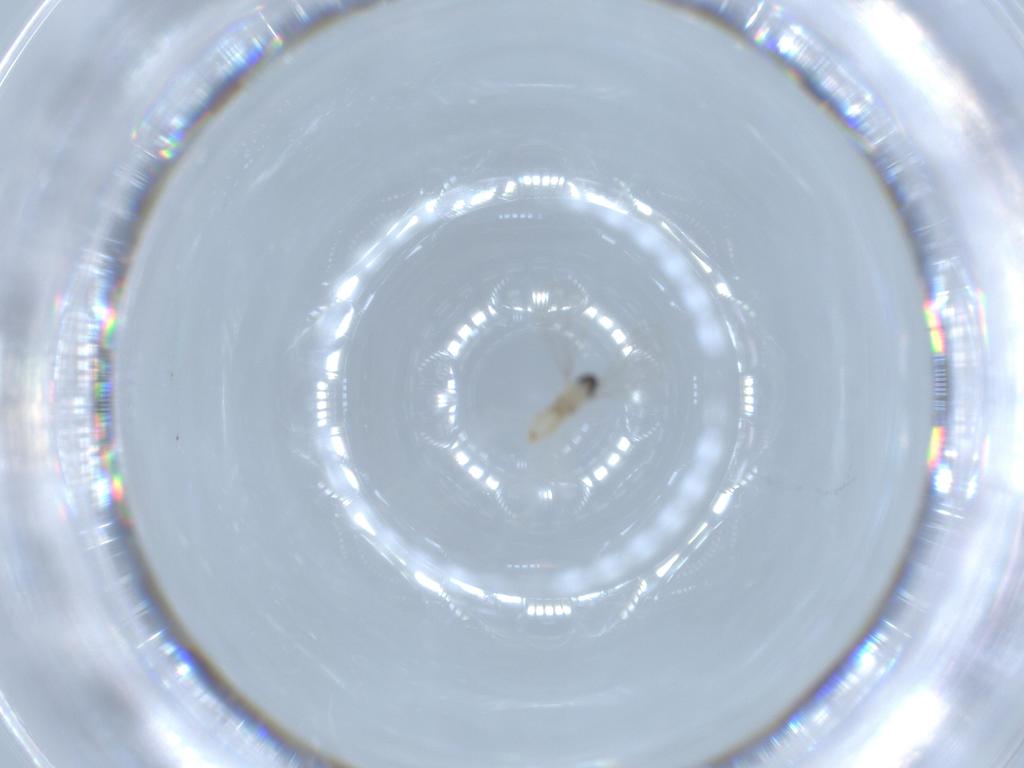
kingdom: Animalia
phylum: Arthropoda
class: Insecta
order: Diptera
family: Cecidomyiidae
